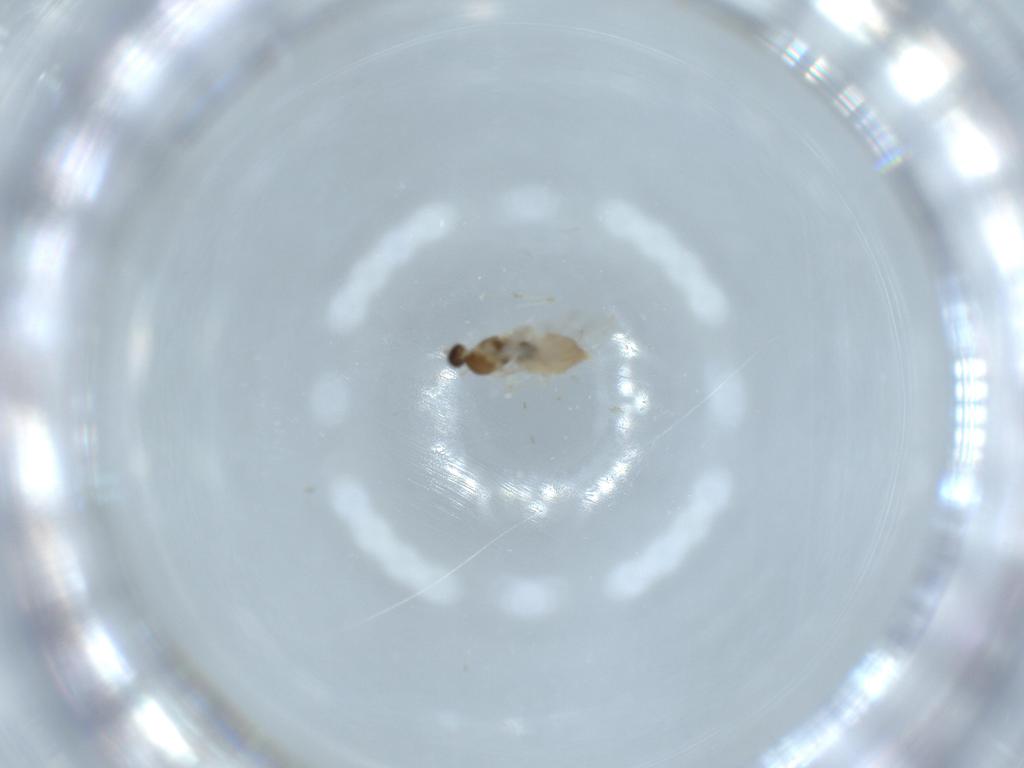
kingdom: Animalia
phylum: Arthropoda
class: Insecta
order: Diptera
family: Cecidomyiidae
